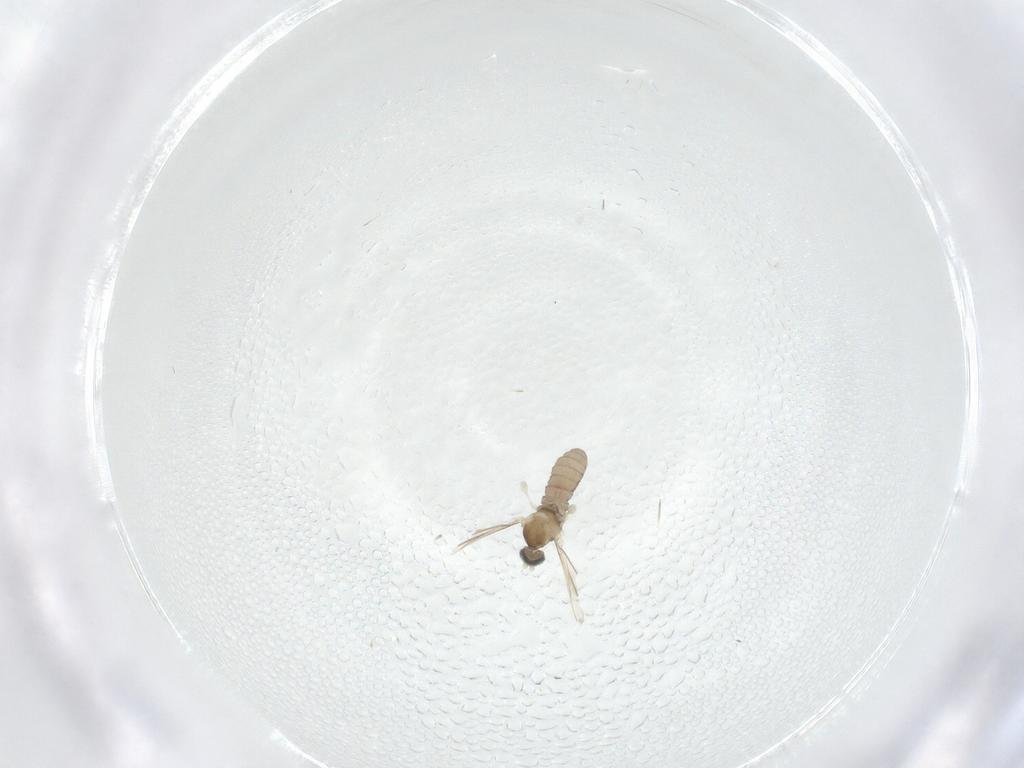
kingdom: Animalia
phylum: Arthropoda
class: Insecta
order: Diptera
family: Cecidomyiidae
